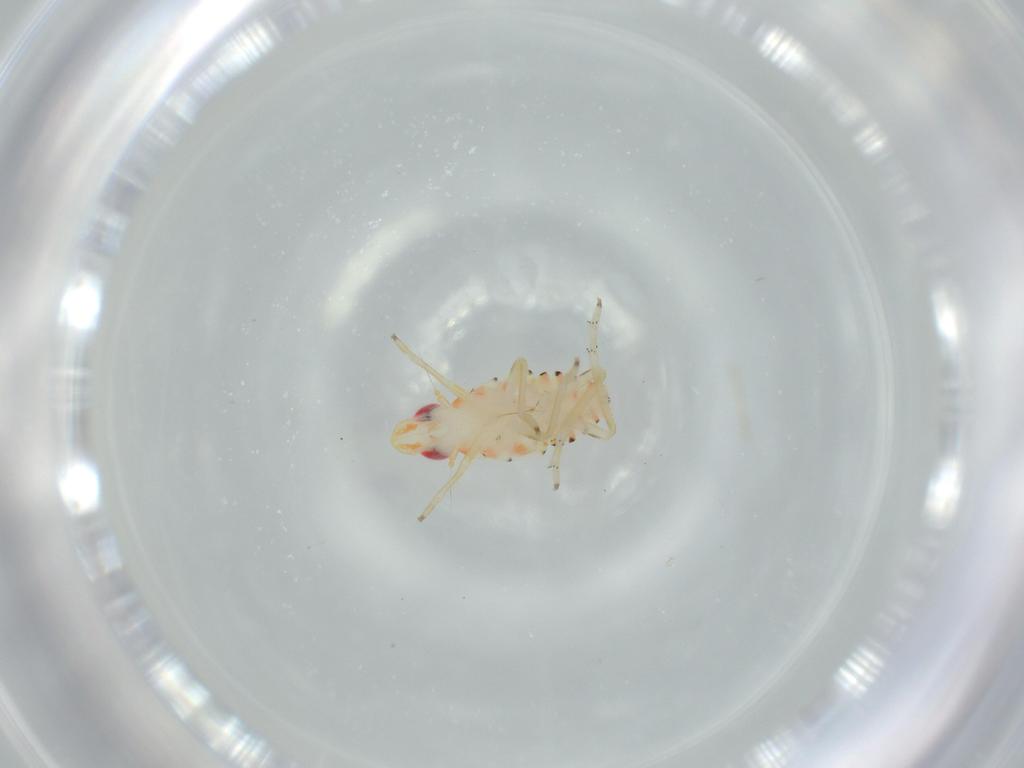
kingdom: Animalia
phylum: Arthropoda
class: Insecta
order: Hemiptera
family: Tropiduchidae
